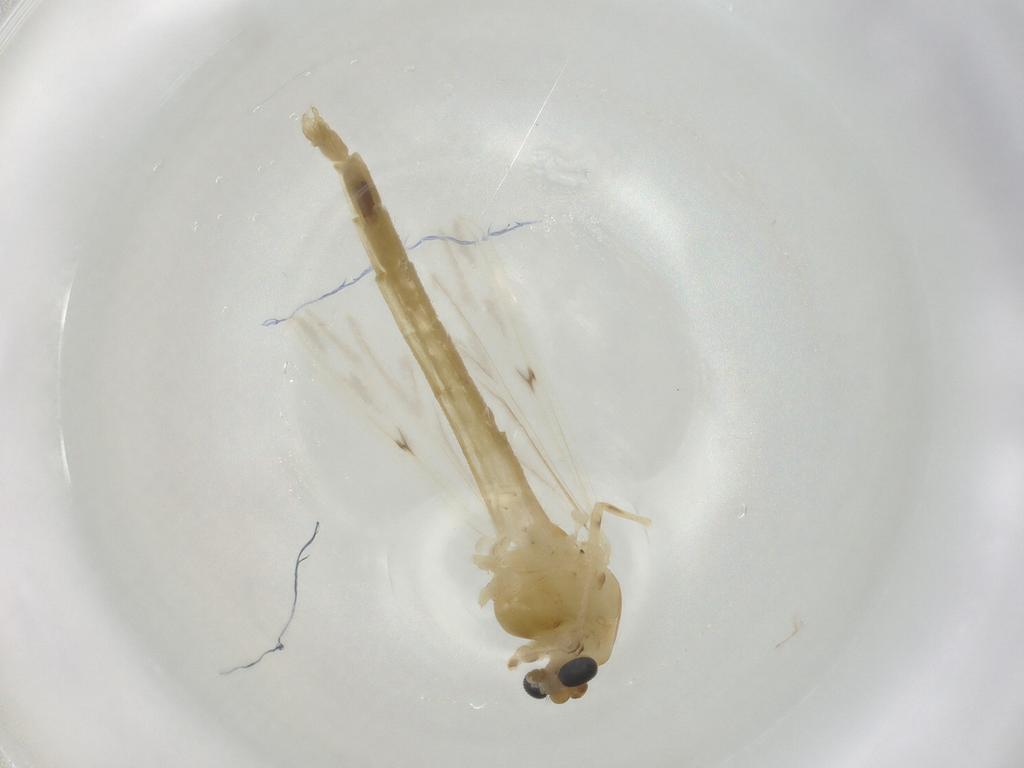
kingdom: Animalia
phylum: Arthropoda
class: Insecta
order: Diptera
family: Chironomidae
